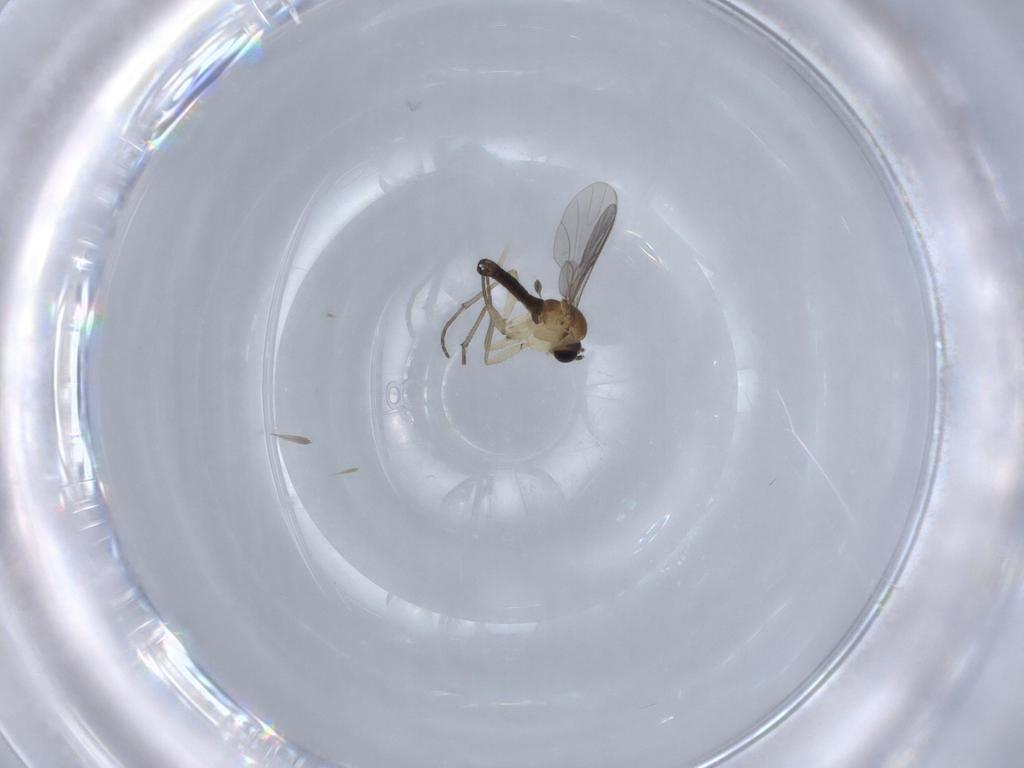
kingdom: Animalia
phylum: Arthropoda
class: Insecta
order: Diptera
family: Sciaridae
